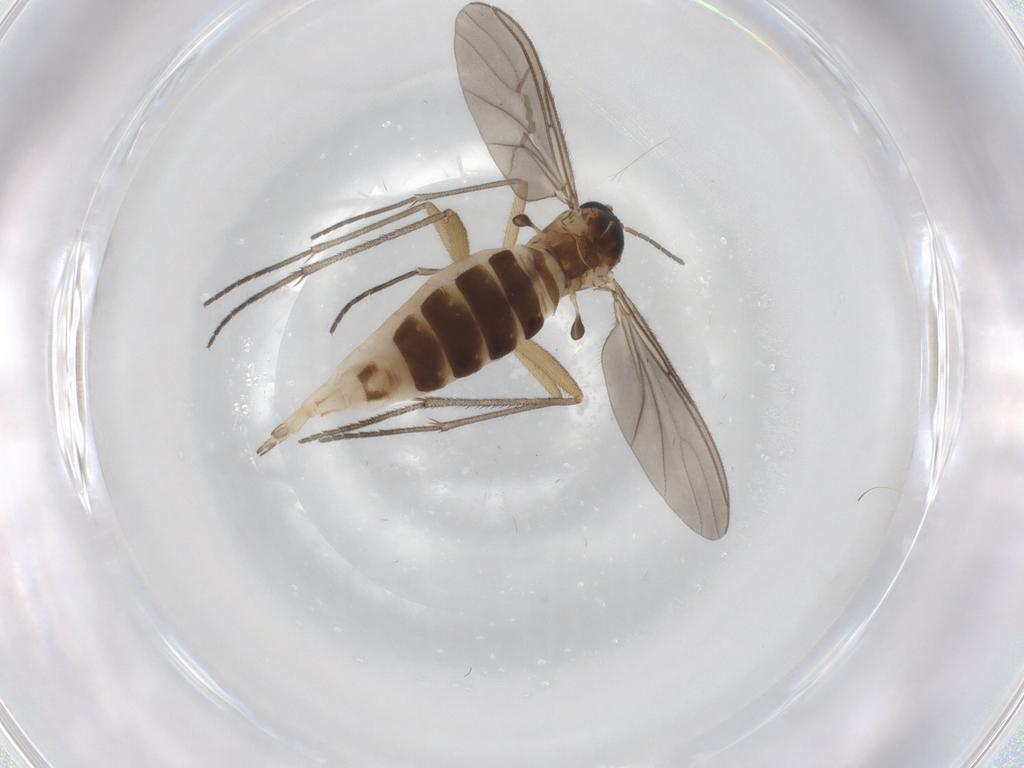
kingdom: Animalia
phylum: Arthropoda
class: Insecta
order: Diptera
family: Sciaridae
